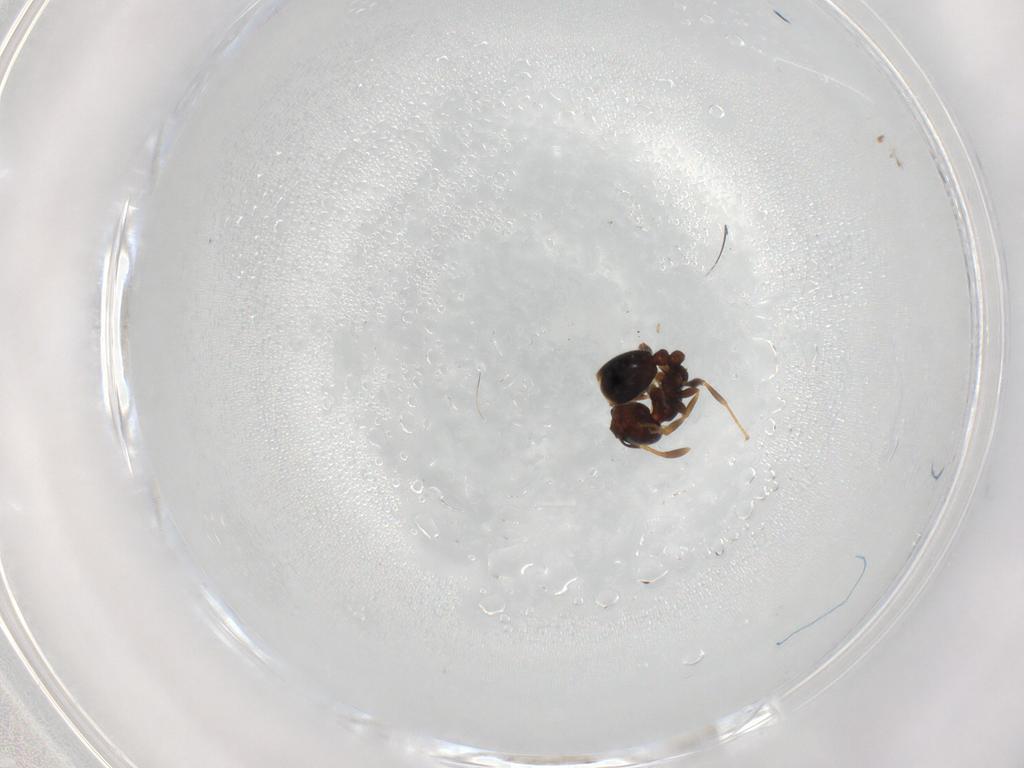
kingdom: Animalia
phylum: Arthropoda
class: Insecta
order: Hymenoptera
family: Formicidae
